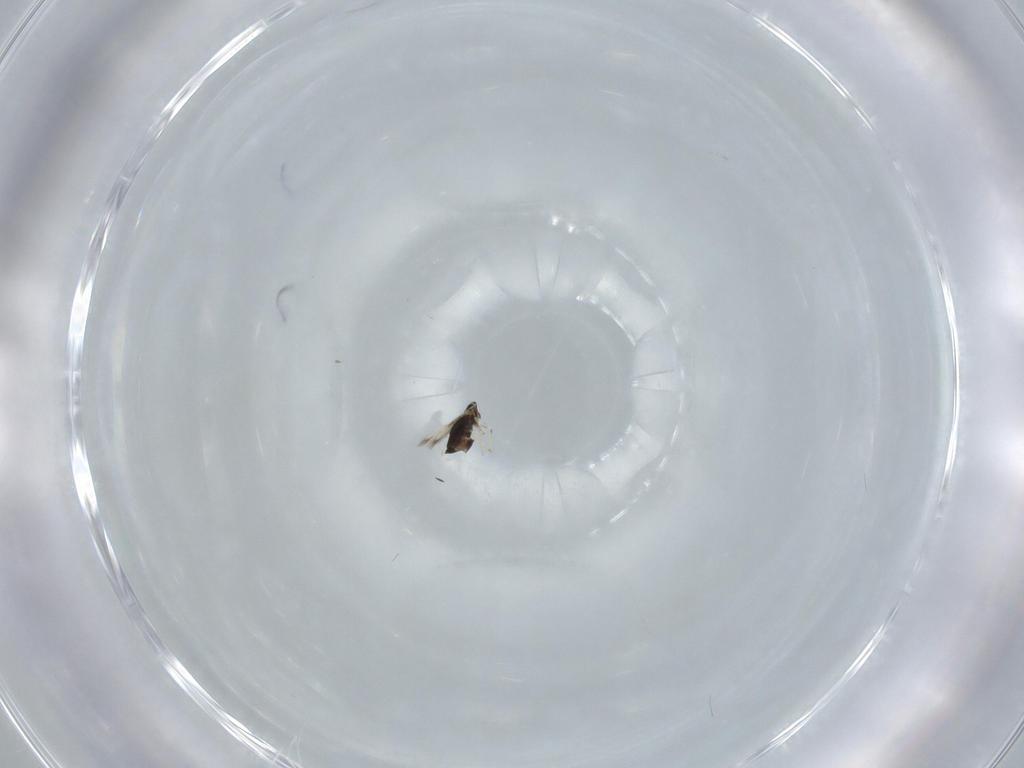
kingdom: Animalia
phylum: Arthropoda
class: Insecta
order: Hymenoptera
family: Signiphoridae
